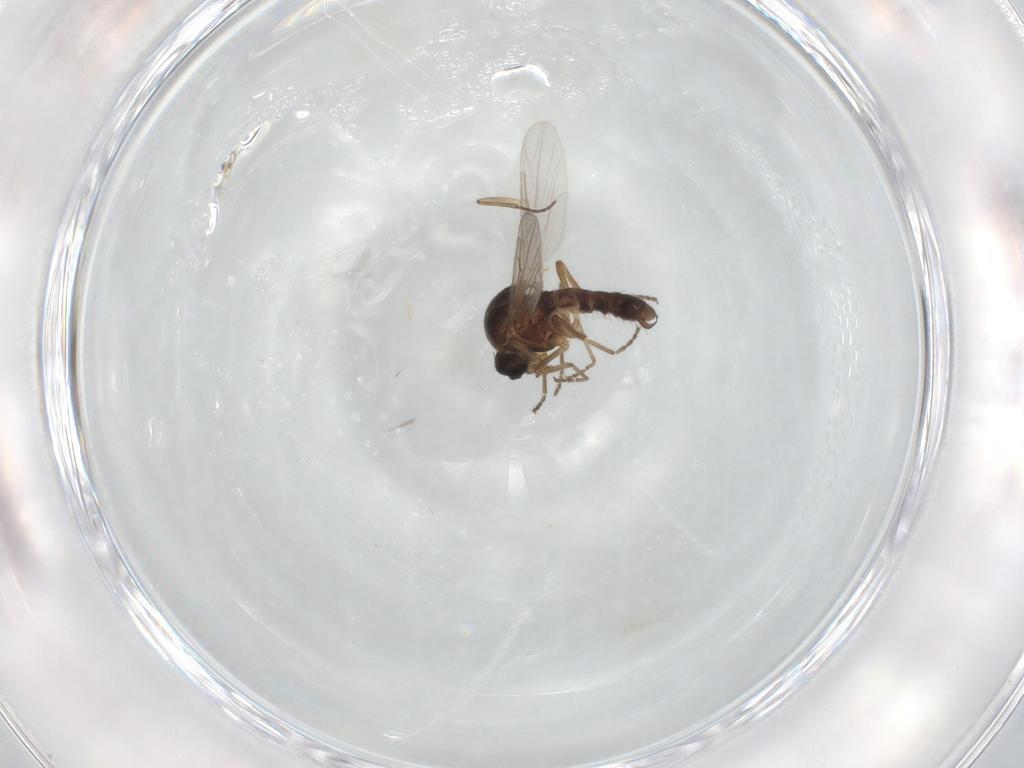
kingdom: Animalia
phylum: Arthropoda
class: Insecta
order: Diptera
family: Ceratopogonidae
